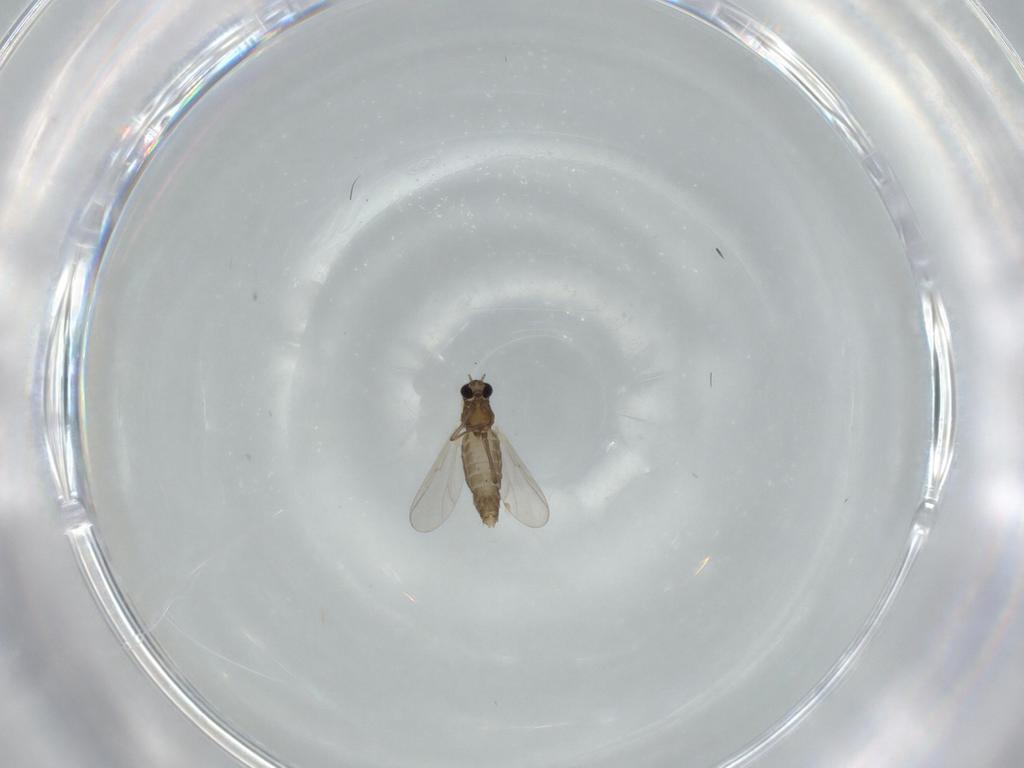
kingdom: Animalia
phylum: Arthropoda
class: Insecta
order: Diptera
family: Chironomidae
